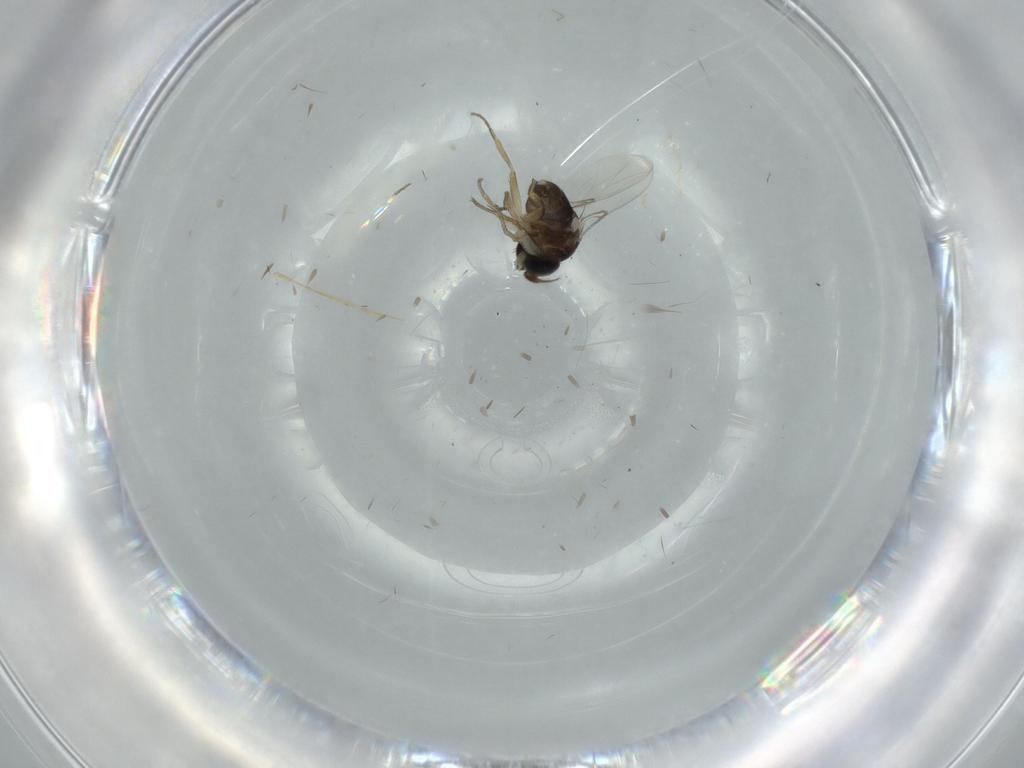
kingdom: Animalia
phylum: Arthropoda
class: Insecta
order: Diptera
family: Phoridae
